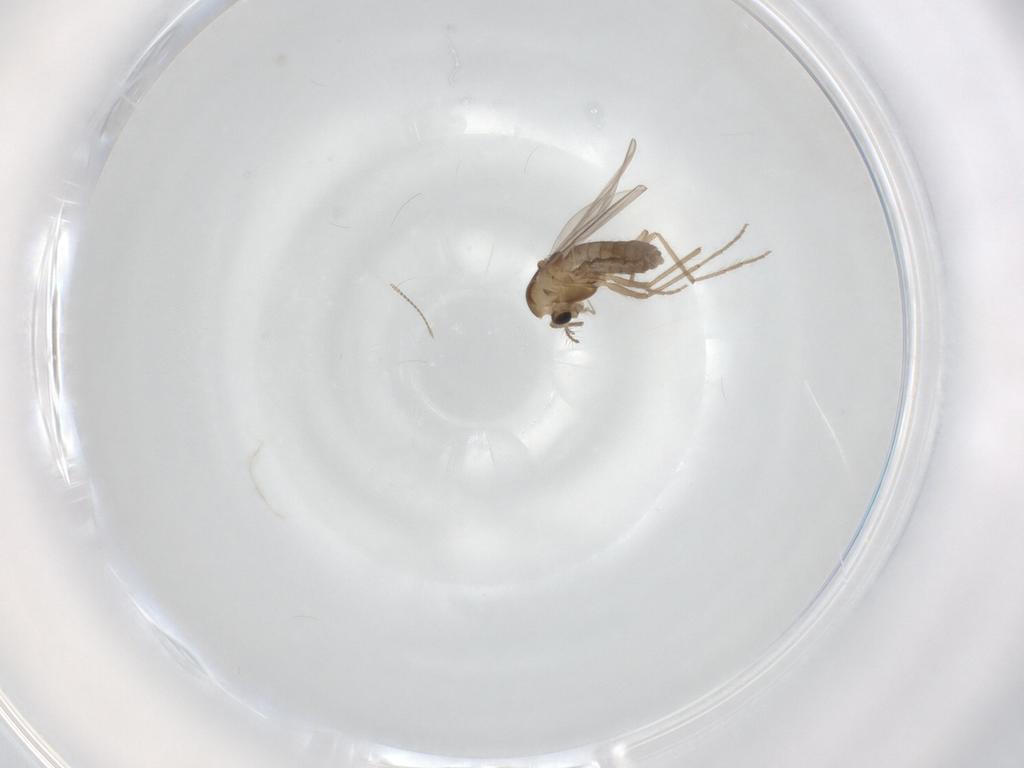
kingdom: Animalia
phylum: Arthropoda
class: Insecta
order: Diptera
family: Chironomidae
